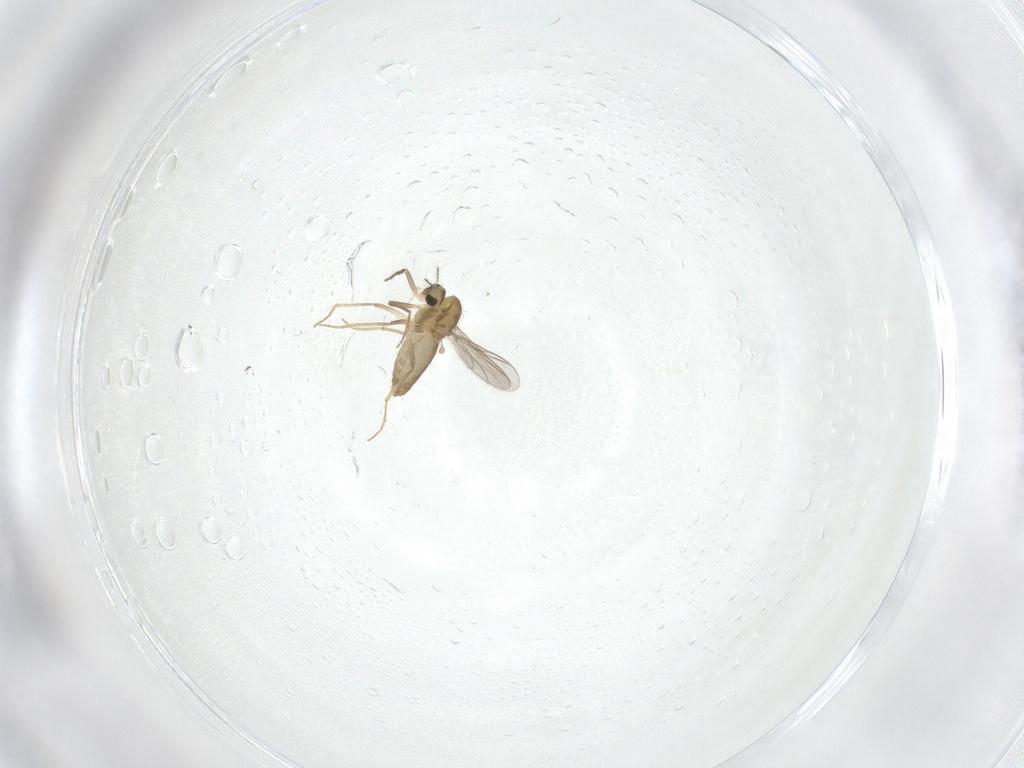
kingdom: Animalia
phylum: Arthropoda
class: Insecta
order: Diptera
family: Chironomidae
